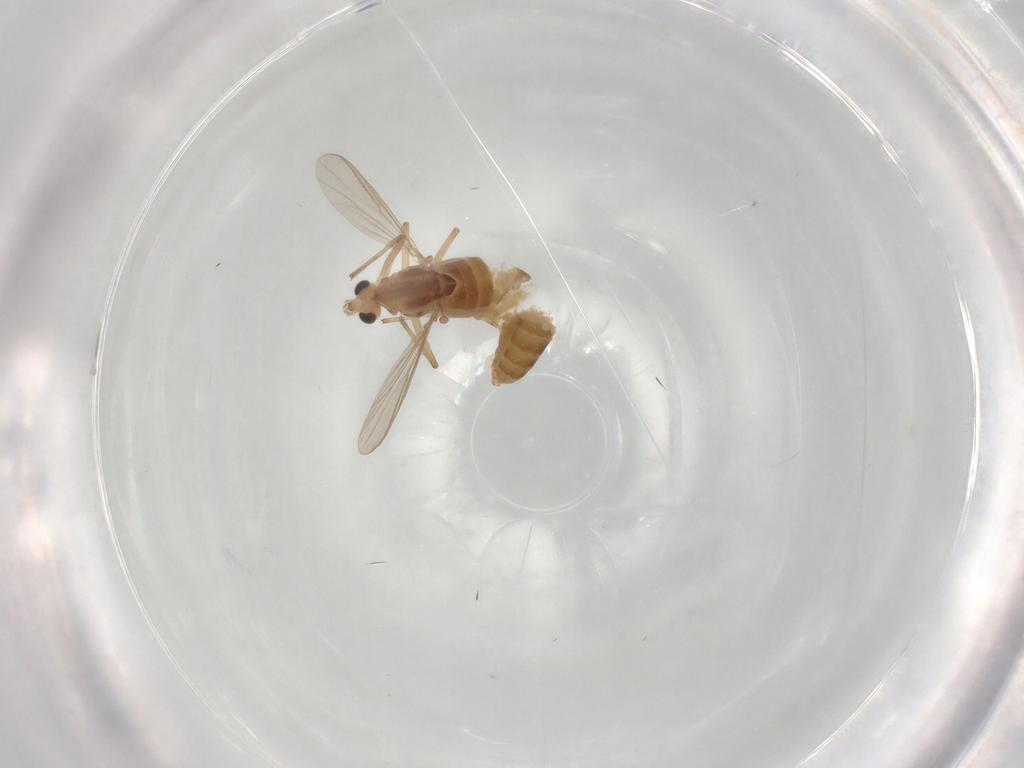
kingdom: Animalia
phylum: Arthropoda
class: Insecta
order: Diptera
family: Chironomidae
